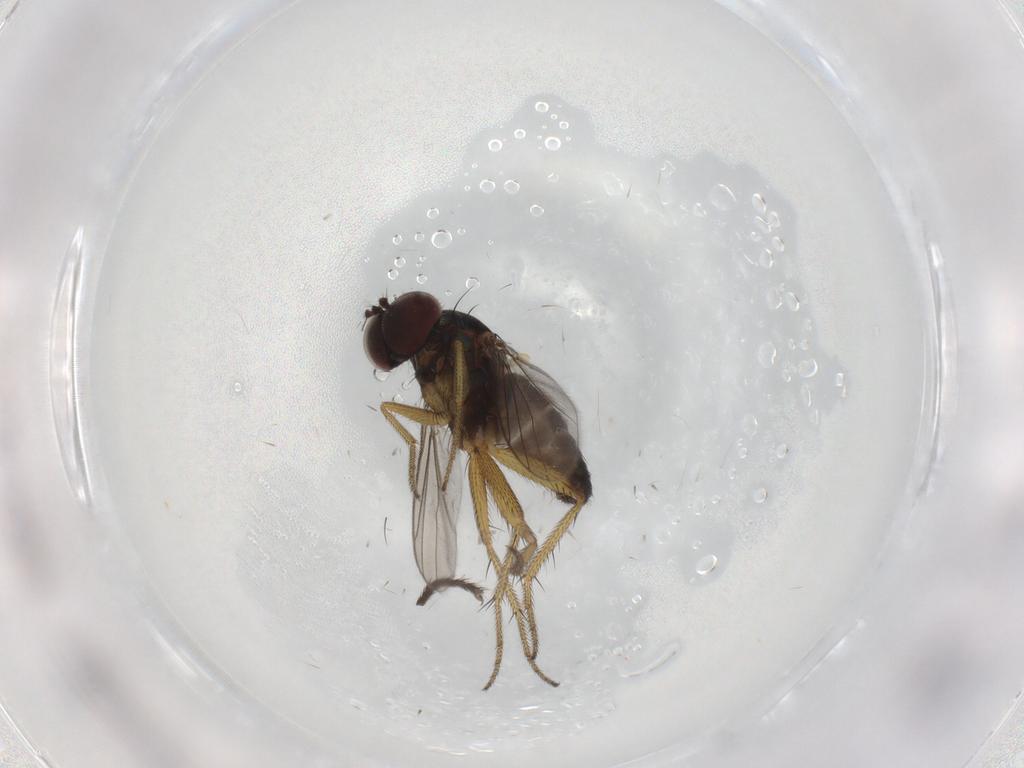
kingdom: Animalia
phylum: Arthropoda
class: Insecta
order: Diptera
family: Dolichopodidae
